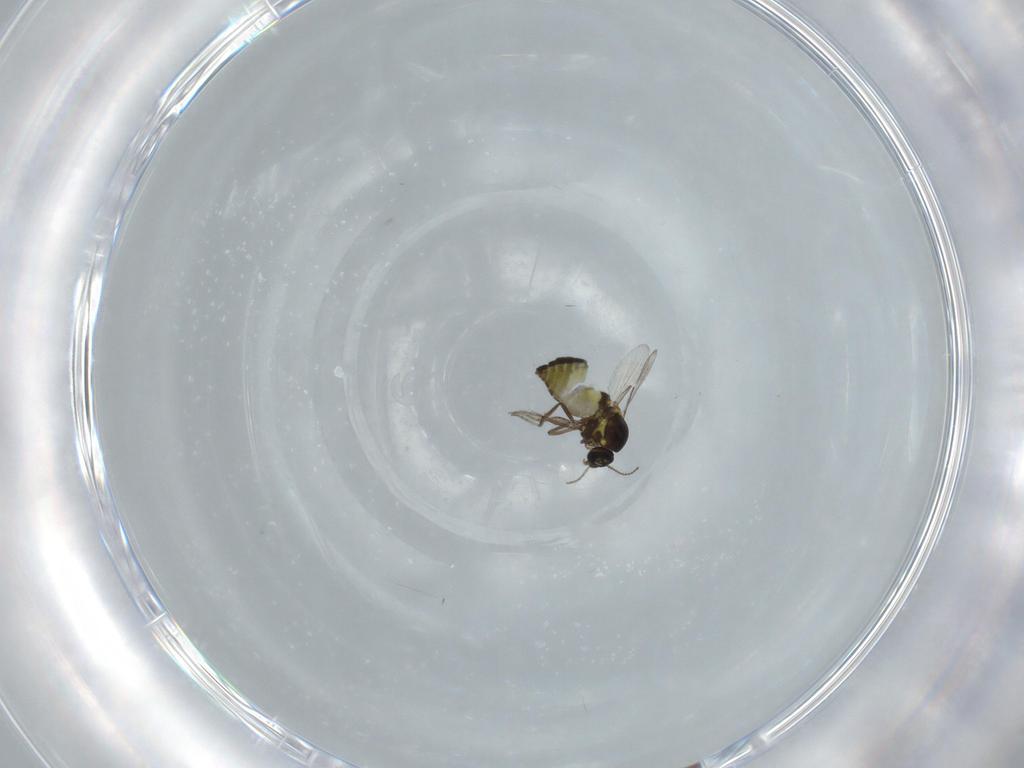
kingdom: Animalia
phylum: Arthropoda
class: Insecta
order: Diptera
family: Ceratopogonidae
